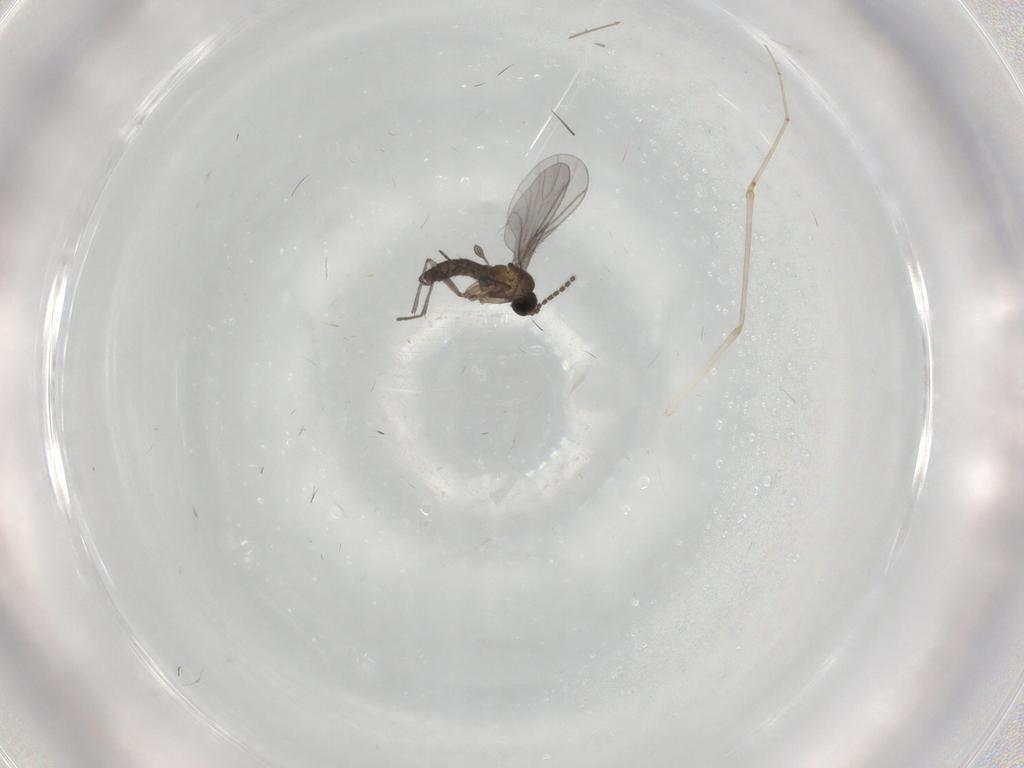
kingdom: Animalia
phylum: Arthropoda
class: Insecta
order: Diptera
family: Sciaridae
